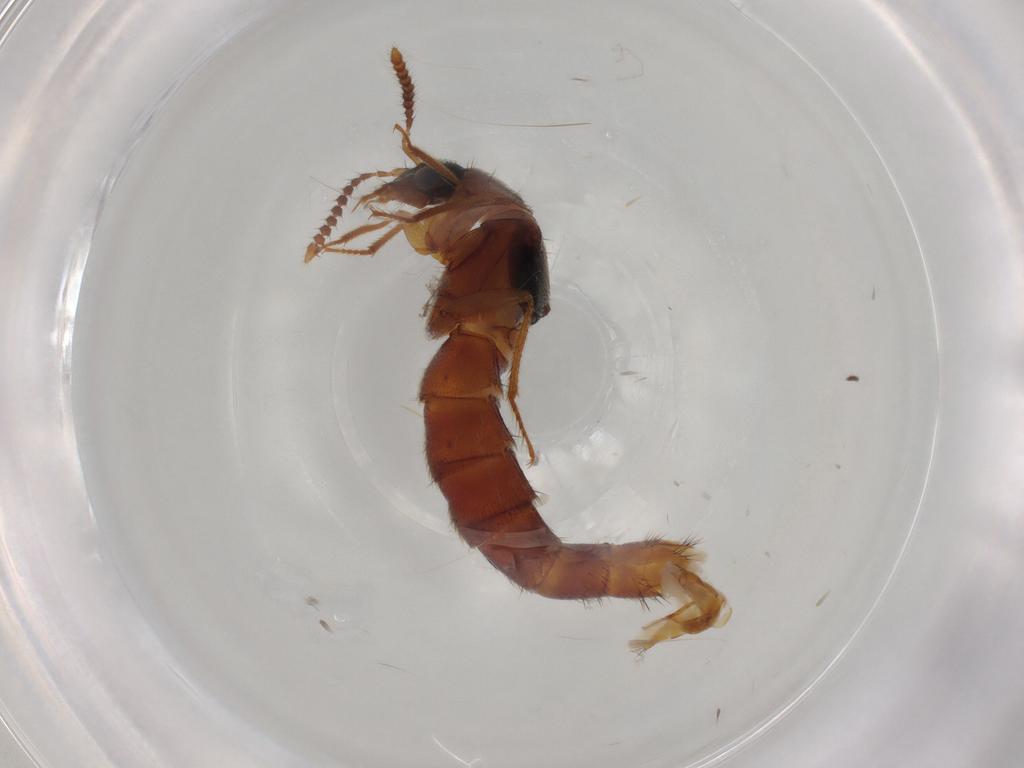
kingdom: Animalia
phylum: Arthropoda
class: Insecta
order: Coleoptera
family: Staphylinidae
